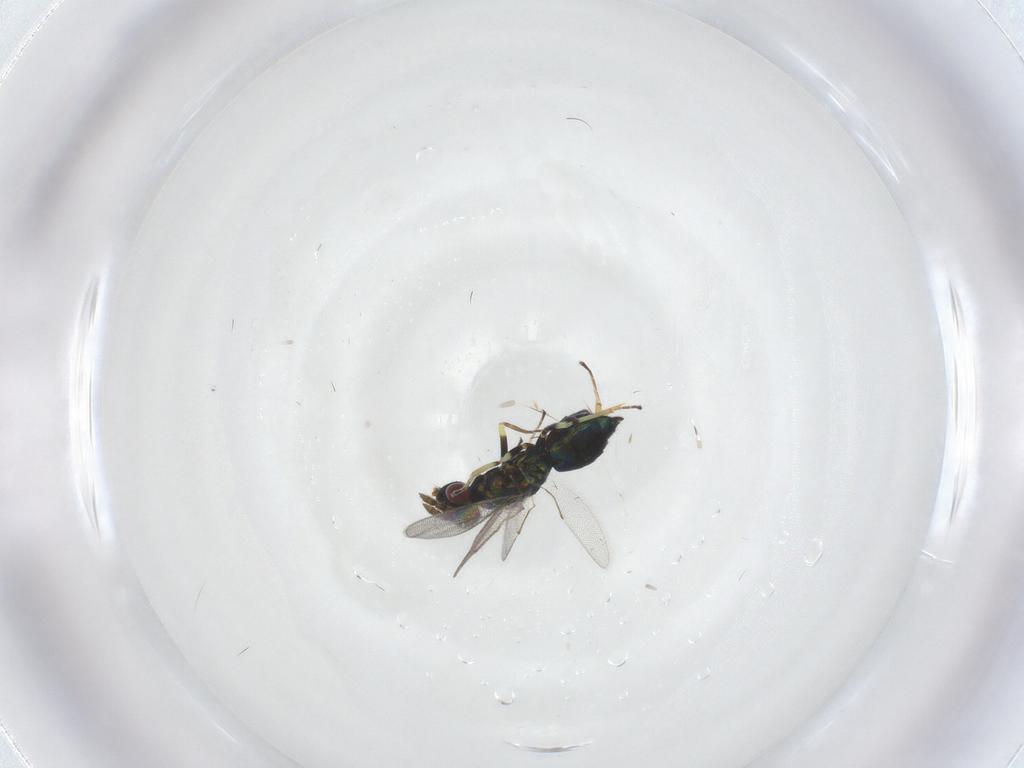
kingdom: Animalia
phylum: Arthropoda
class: Insecta
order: Hymenoptera
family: Eulophidae
